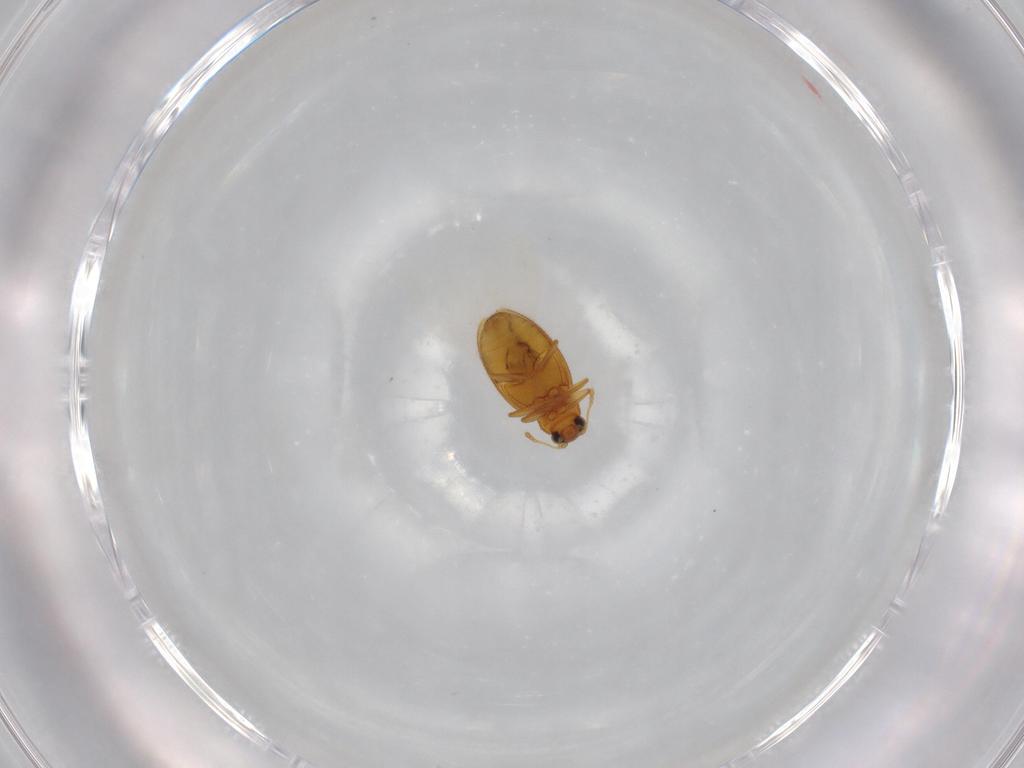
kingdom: Animalia
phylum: Arthropoda
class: Insecta
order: Coleoptera
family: Latridiidae
